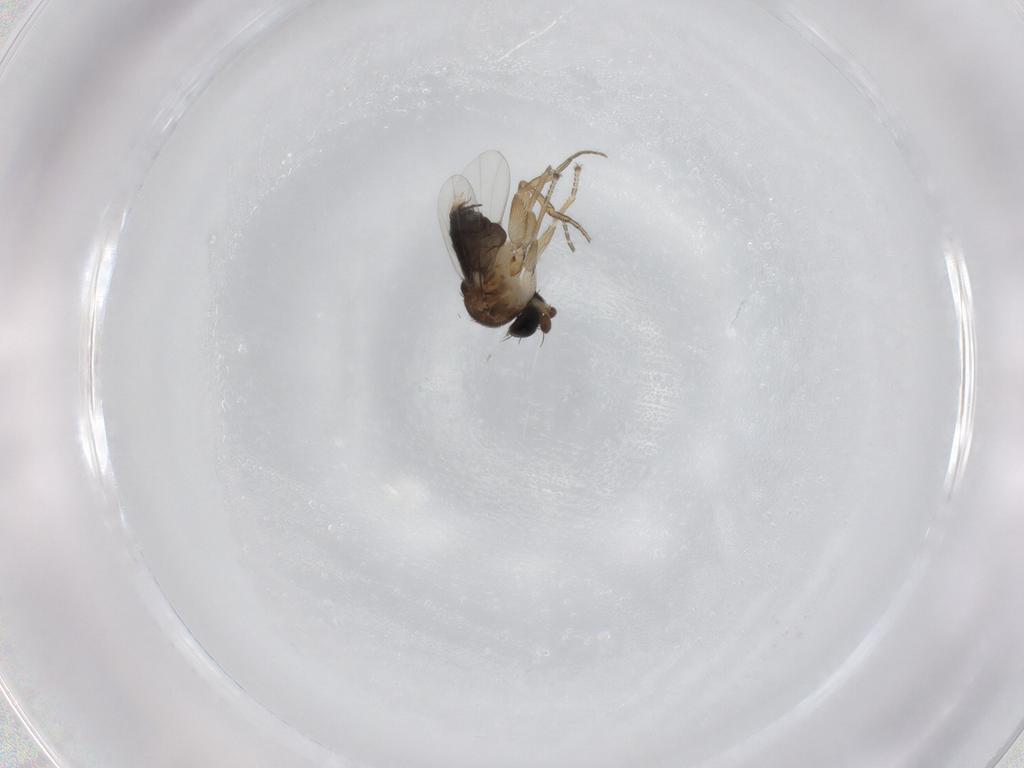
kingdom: Animalia
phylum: Arthropoda
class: Insecta
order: Diptera
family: Phoridae
